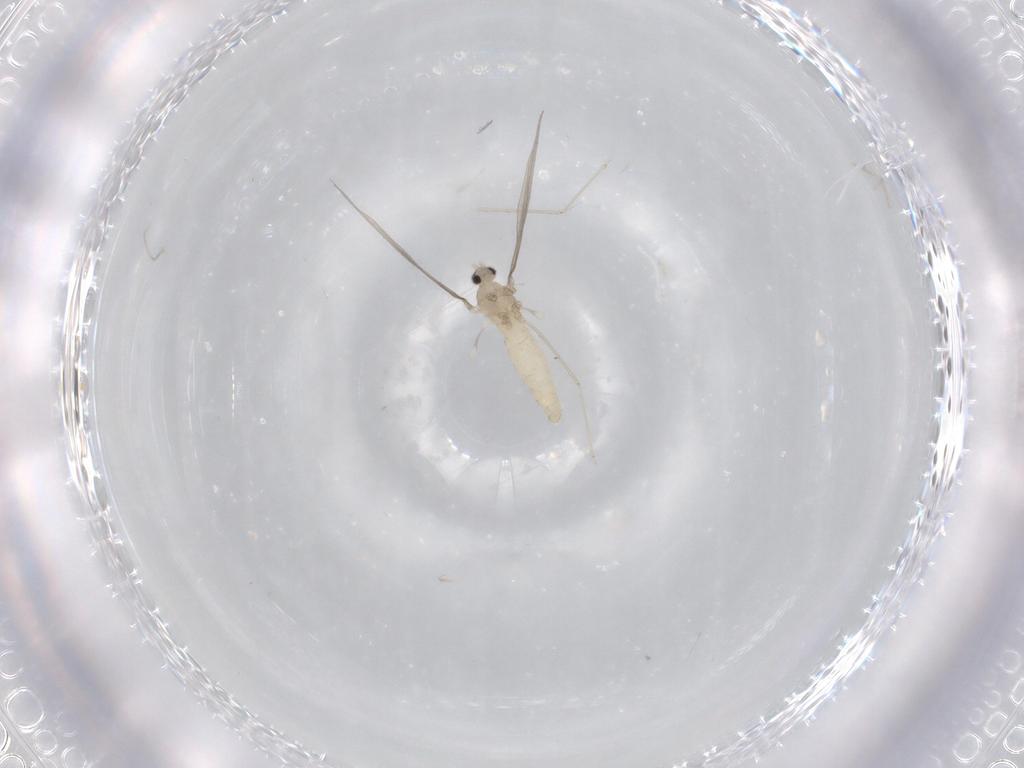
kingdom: Animalia
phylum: Arthropoda
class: Insecta
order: Diptera
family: Cecidomyiidae
